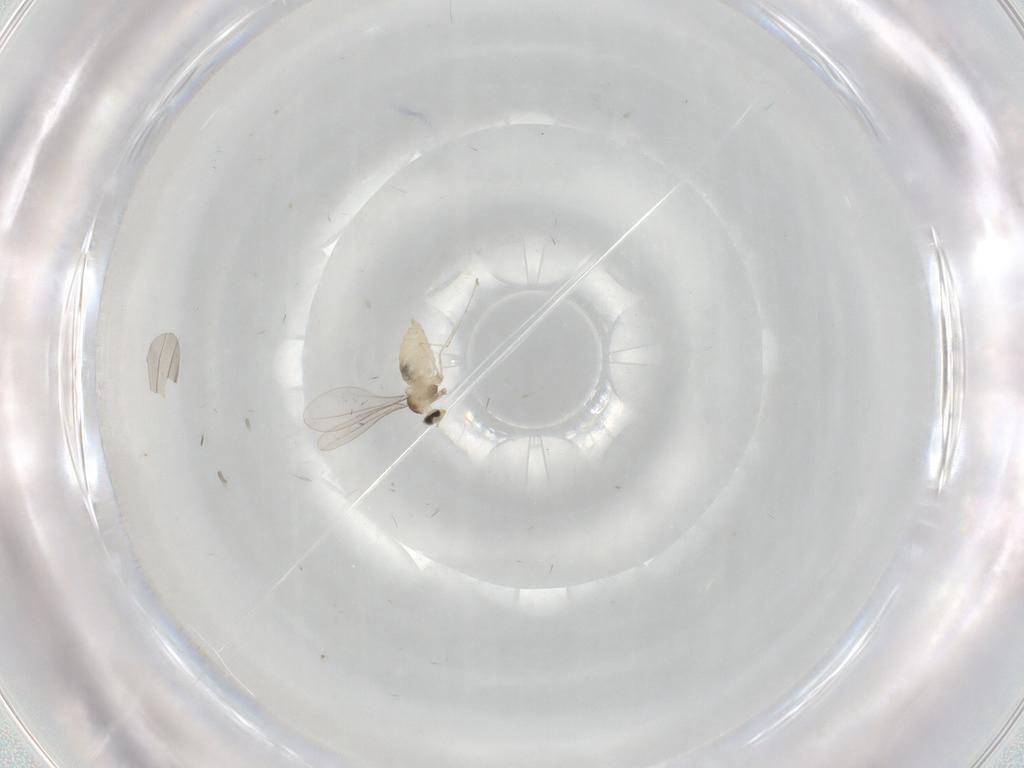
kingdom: Animalia
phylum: Arthropoda
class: Insecta
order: Diptera
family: Cecidomyiidae
